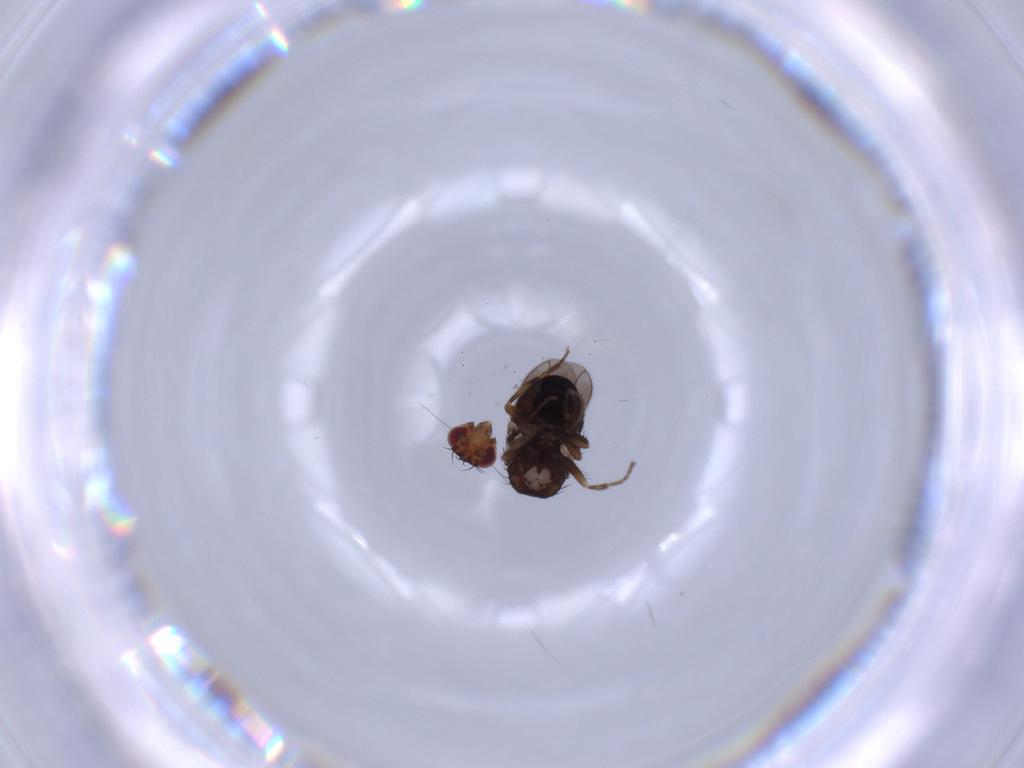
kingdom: Animalia
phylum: Arthropoda
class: Insecta
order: Diptera
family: Sphaeroceridae
